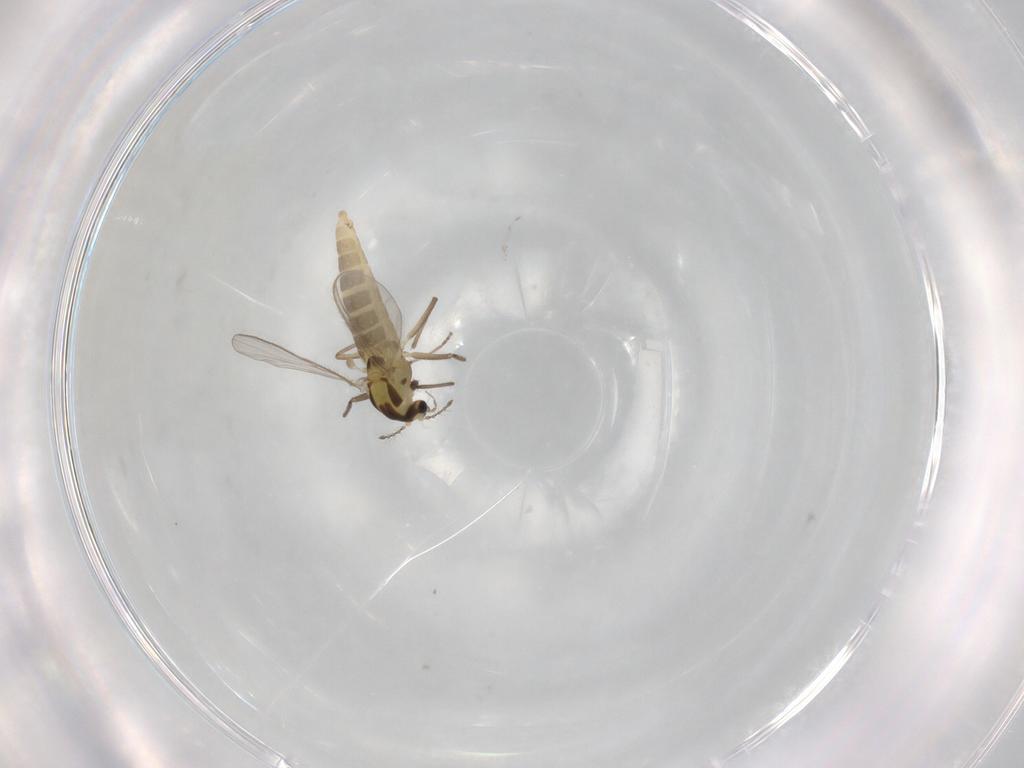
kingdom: Animalia
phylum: Arthropoda
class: Insecta
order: Diptera
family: Chironomidae
